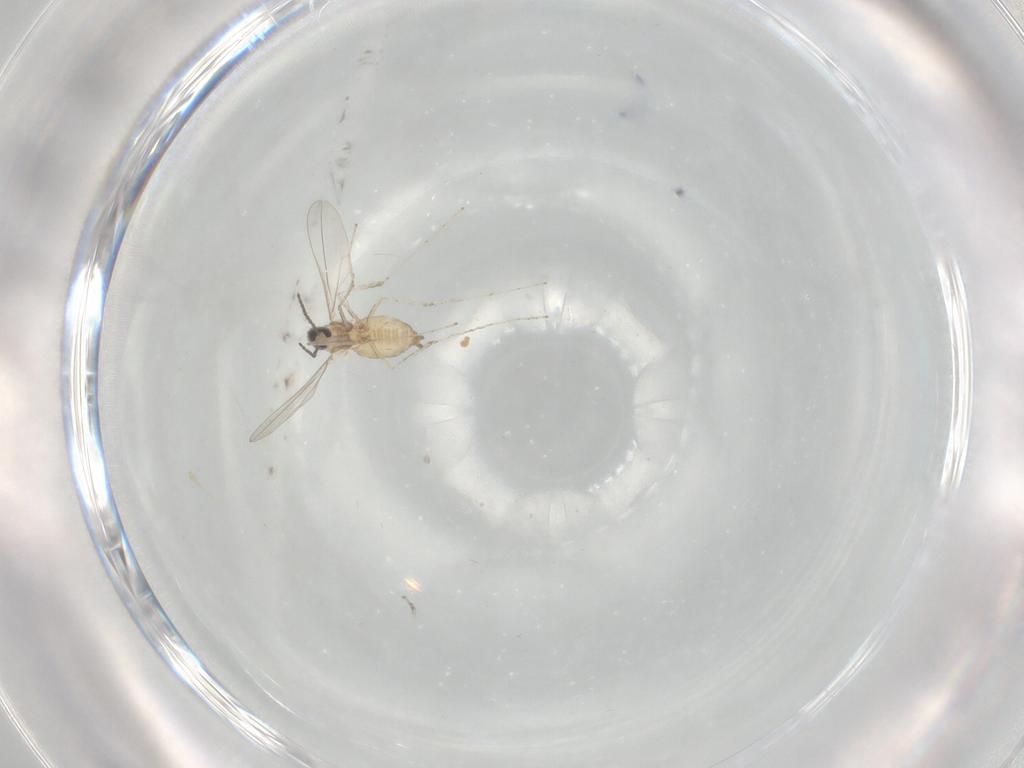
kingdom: Animalia
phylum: Arthropoda
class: Insecta
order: Diptera
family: Cecidomyiidae
